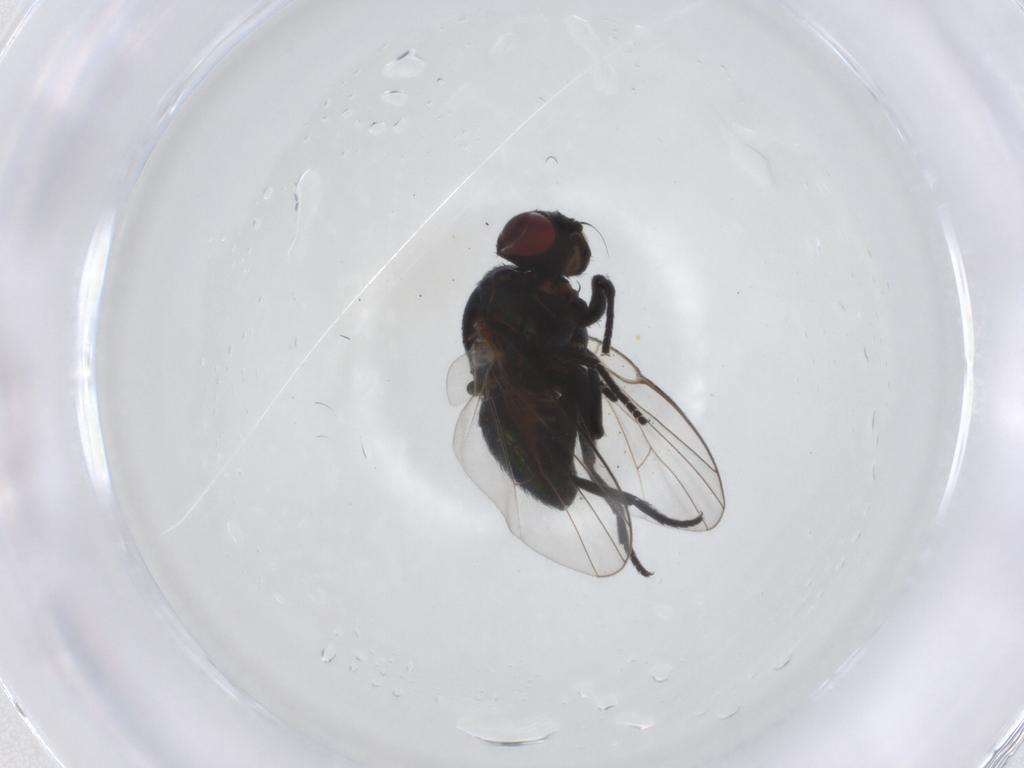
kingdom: Animalia
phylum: Arthropoda
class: Insecta
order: Diptera
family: Agromyzidae
